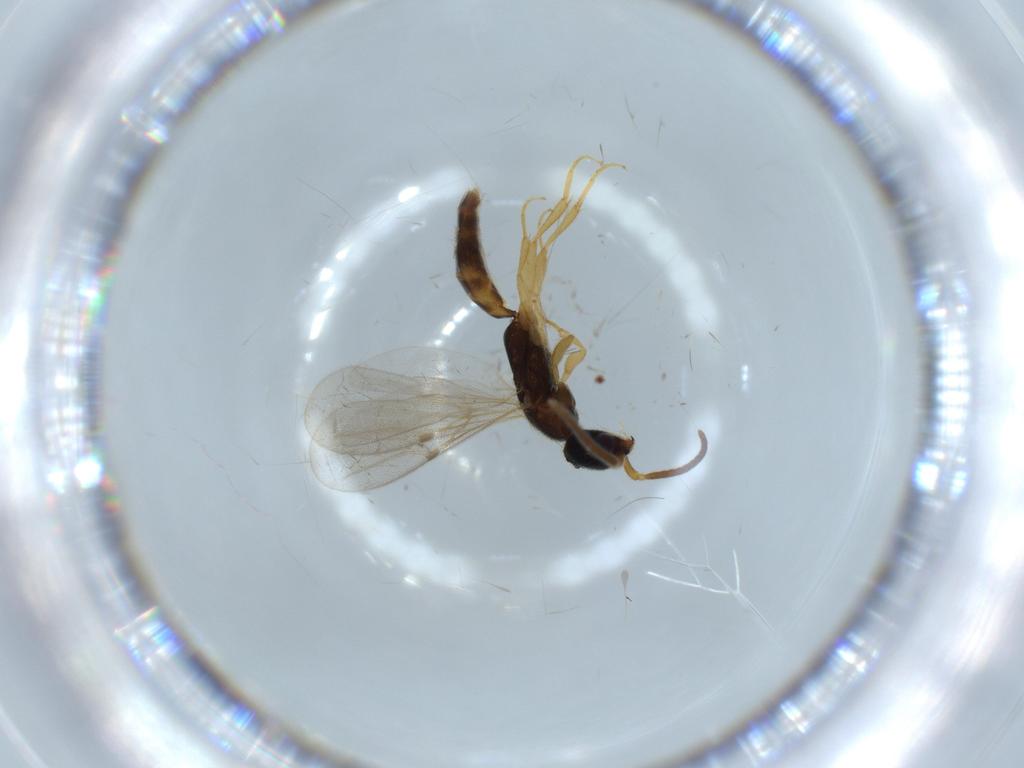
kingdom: Animalia
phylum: Arthropoda
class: Insecta
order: Hymenoptera
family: Bethylidae
